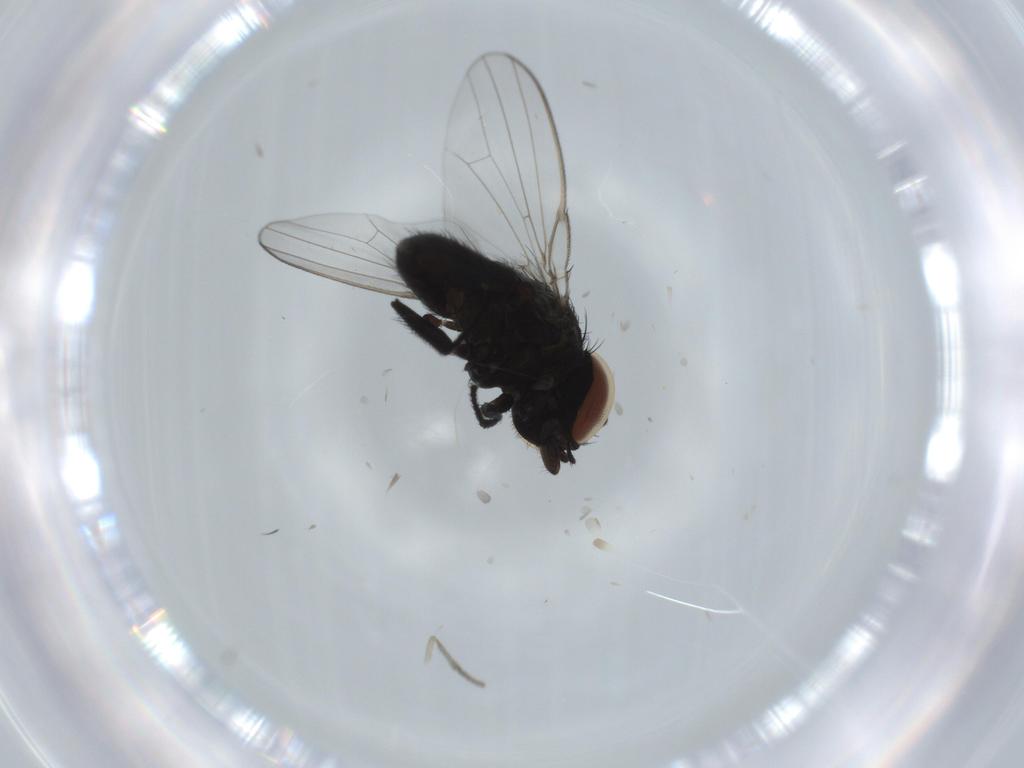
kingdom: Animalia
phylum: Arthropoda
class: Insecta
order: Diptera
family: Milichiidae
